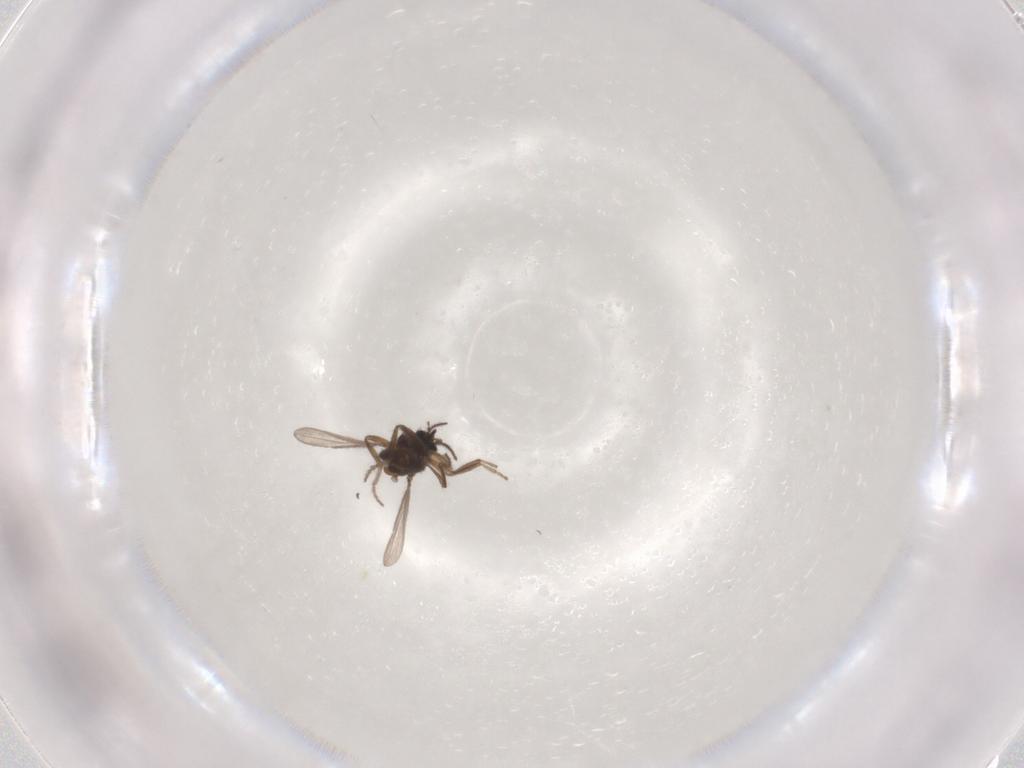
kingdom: Animalia
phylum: Arthropoda
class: Insecta
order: Diptera
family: Ceratopogonidae
